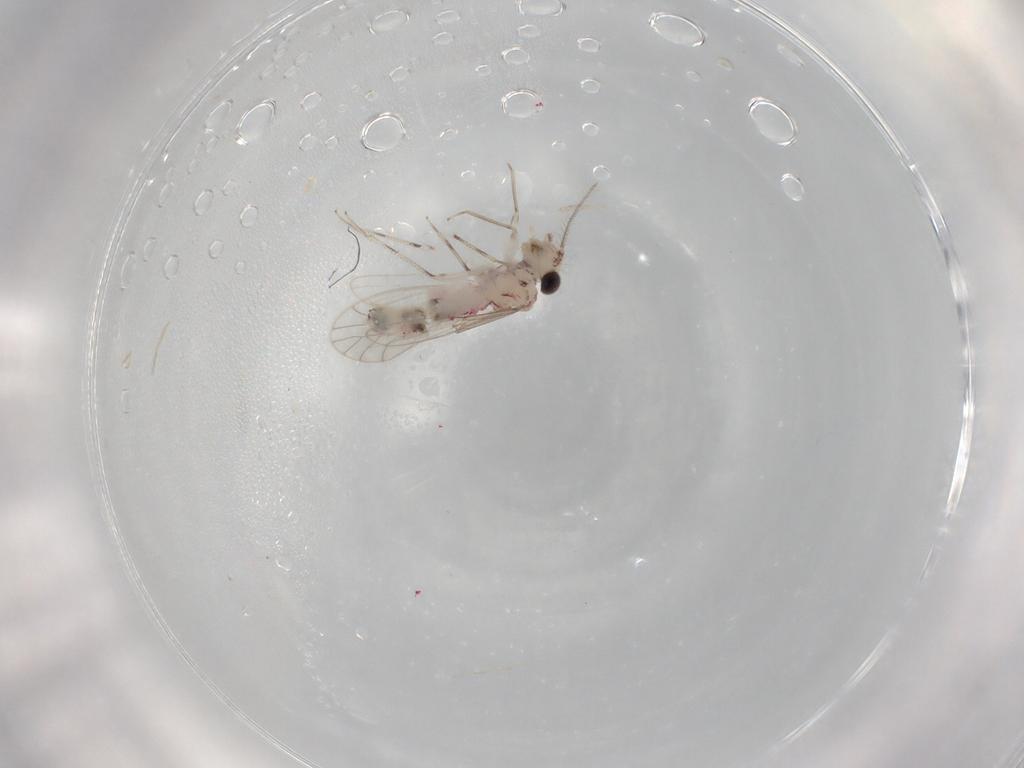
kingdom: Animalia
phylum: Arthropoda
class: Insecta
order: Psocodea
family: Caeciliusidae
